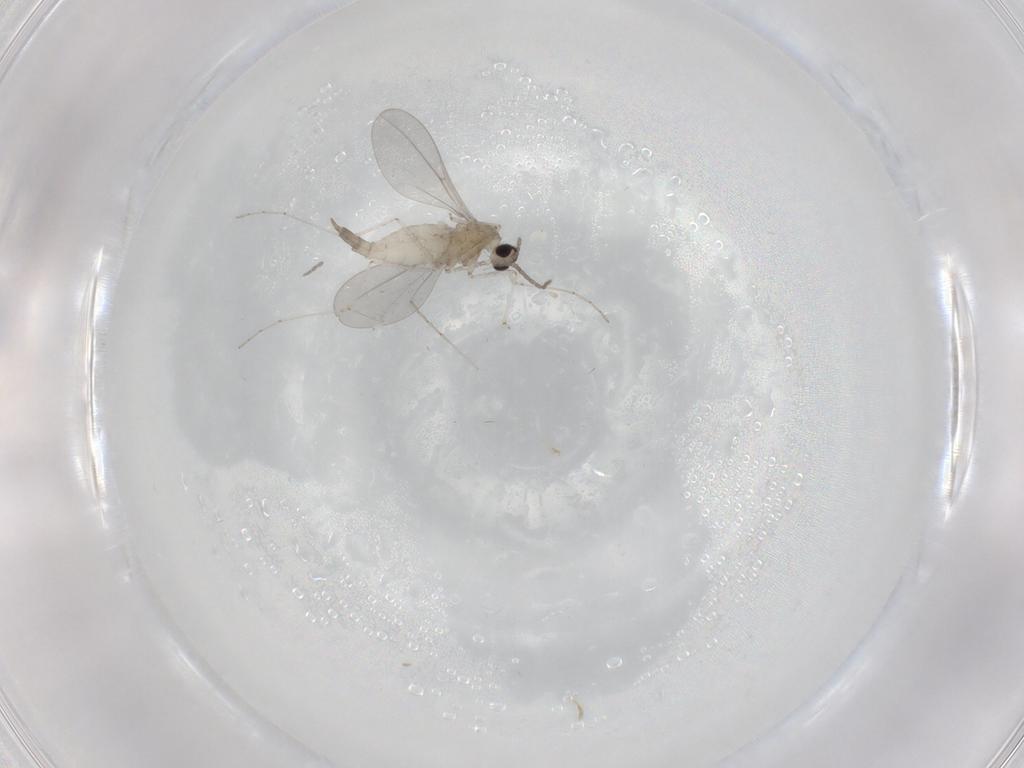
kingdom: Animalia
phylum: Arthropoda
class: Insecta
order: Diptera
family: Cecidomyiidae
